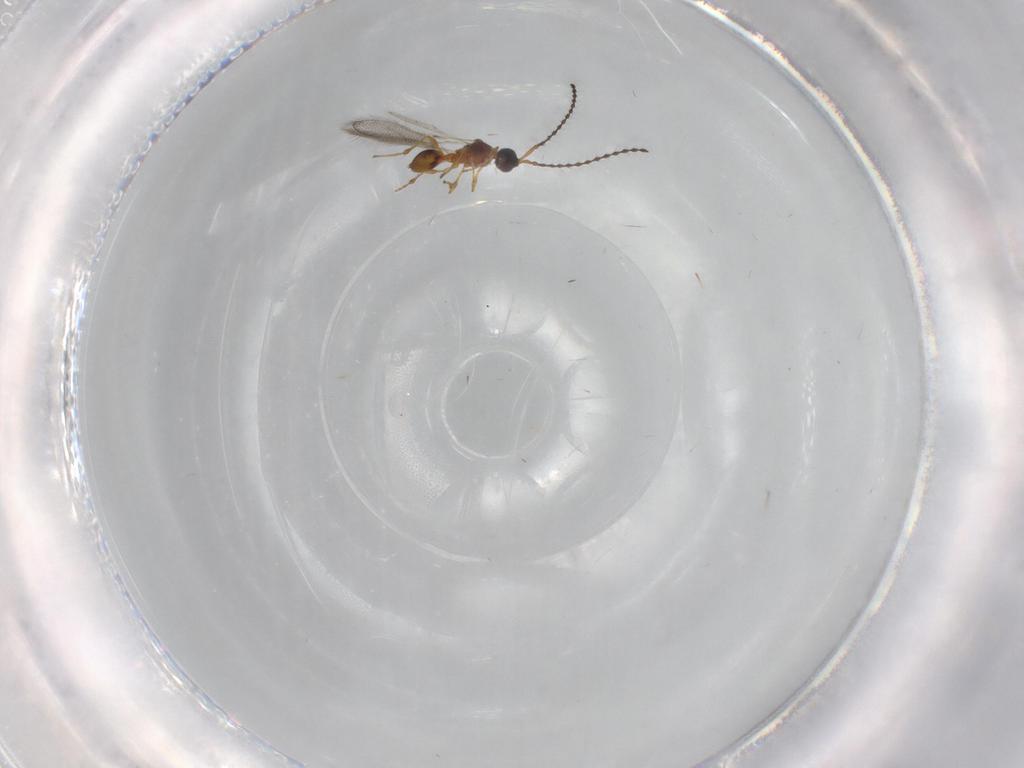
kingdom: Animalia
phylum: Arthropoda
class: Insecta
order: Hymenoptera
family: Diapriidae
